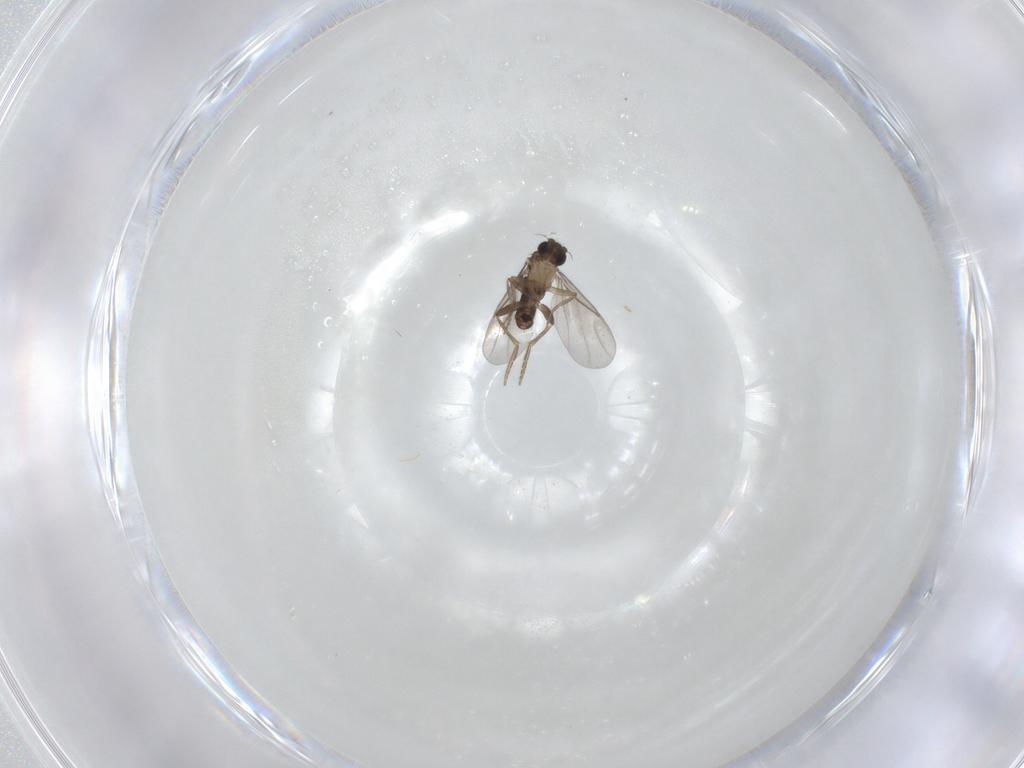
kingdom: Animalia
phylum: Arthropoda
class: Insecta
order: Diptera
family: Phoridae
